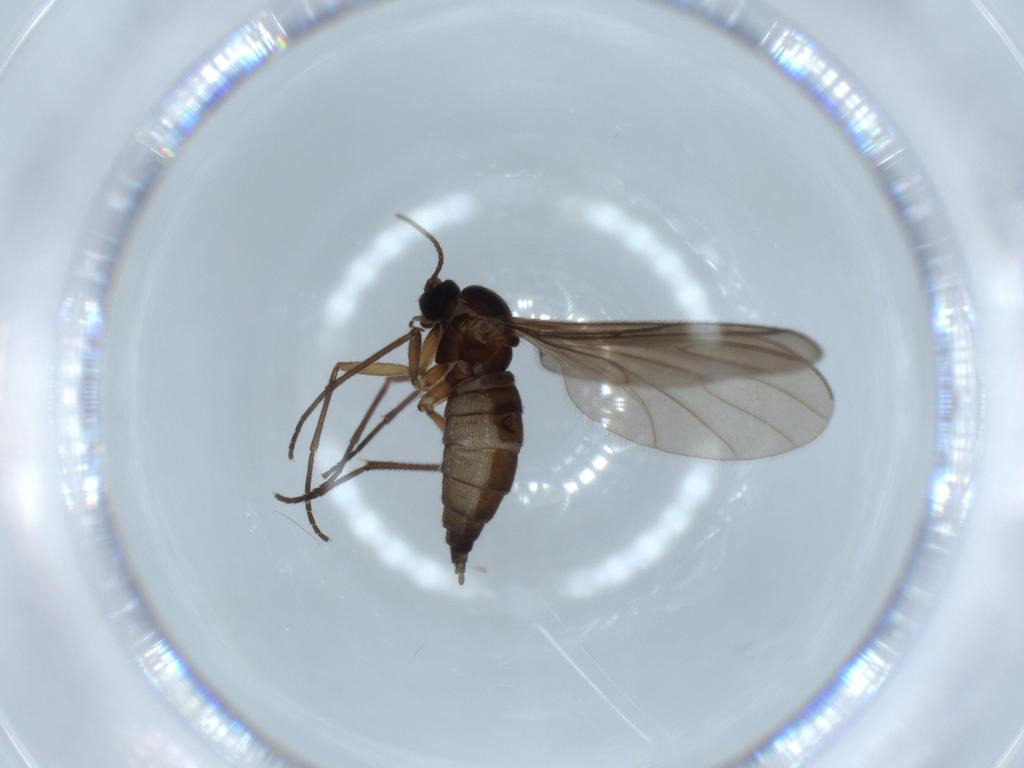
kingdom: Animalia
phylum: Arthropoda
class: Insecta
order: Diptera
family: Sciaridae
